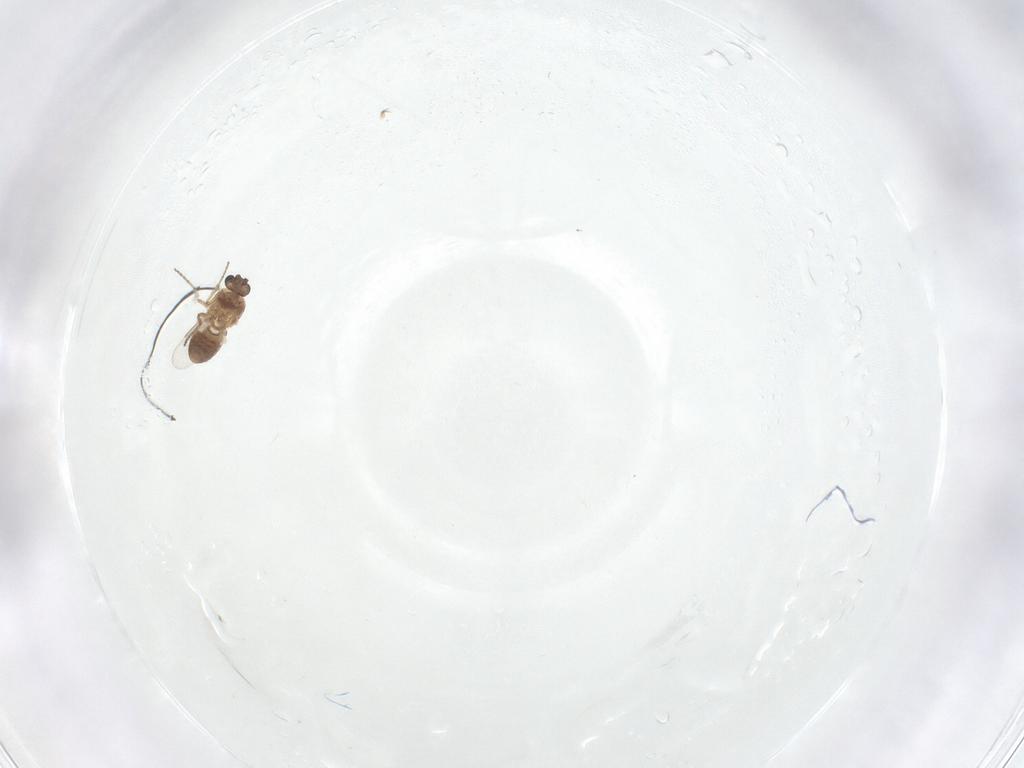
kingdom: Animalia
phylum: Arthropoda
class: Insecta
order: Diptera
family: Ceratopogonidae
